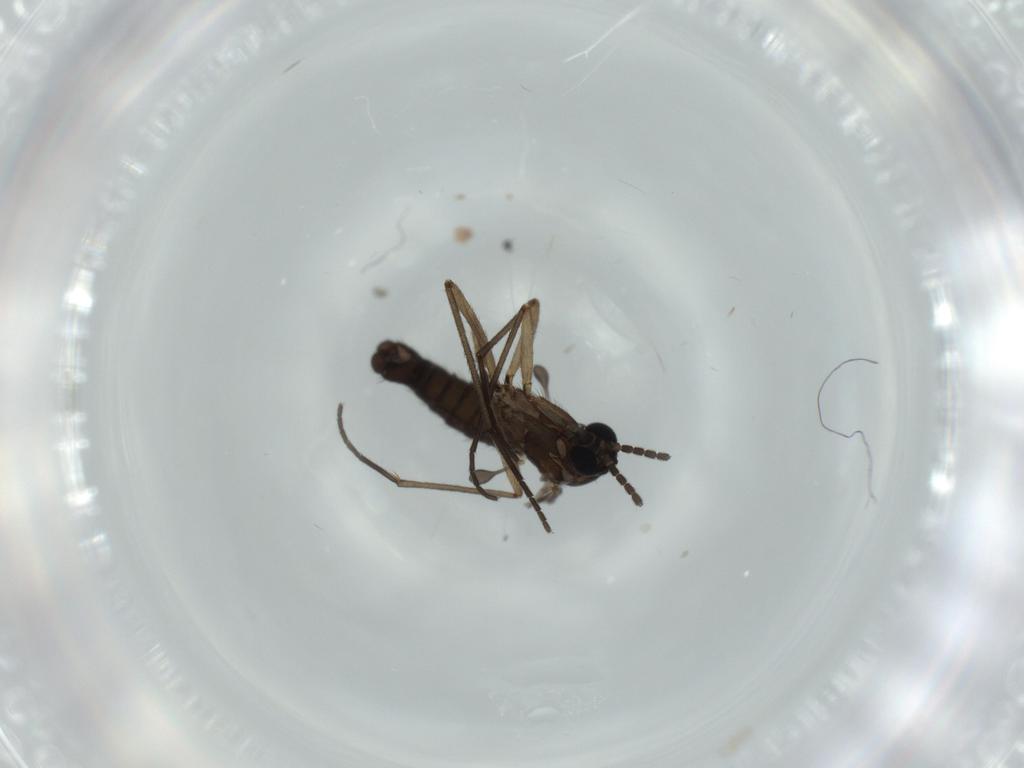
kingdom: Animalia
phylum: Arthropoda
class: Insecta
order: Diptera
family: Sciaridae
